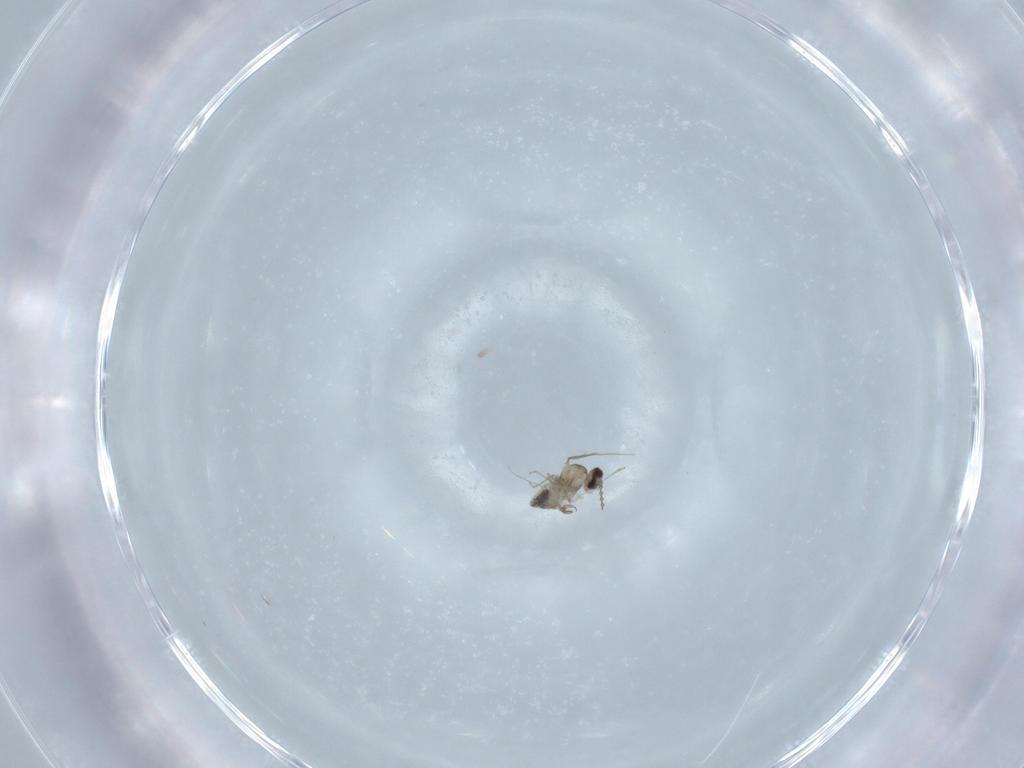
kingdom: Animalia
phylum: Arthropoda
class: Insecta
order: Diptera
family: Cecidomyiidae
